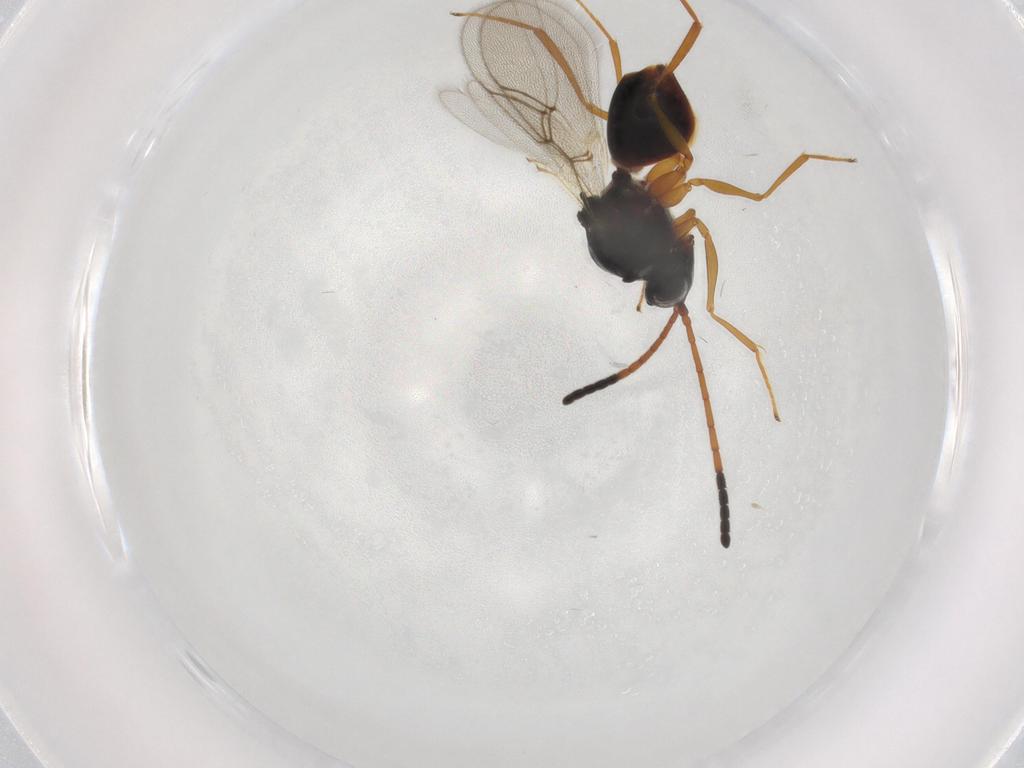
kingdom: Animalia
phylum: Arthropoda
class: Insecta
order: Hymenoptera
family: Figitidae
